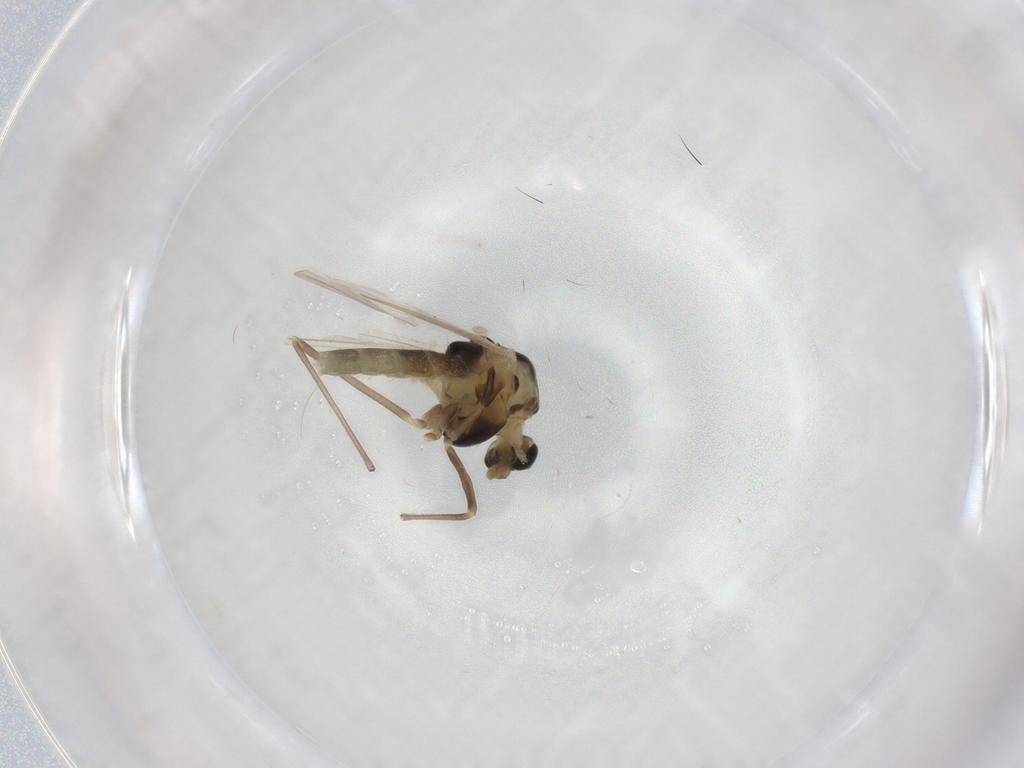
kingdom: Animalia
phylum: Arthropoda
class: Insecta
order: Diptera
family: Chironomidae
